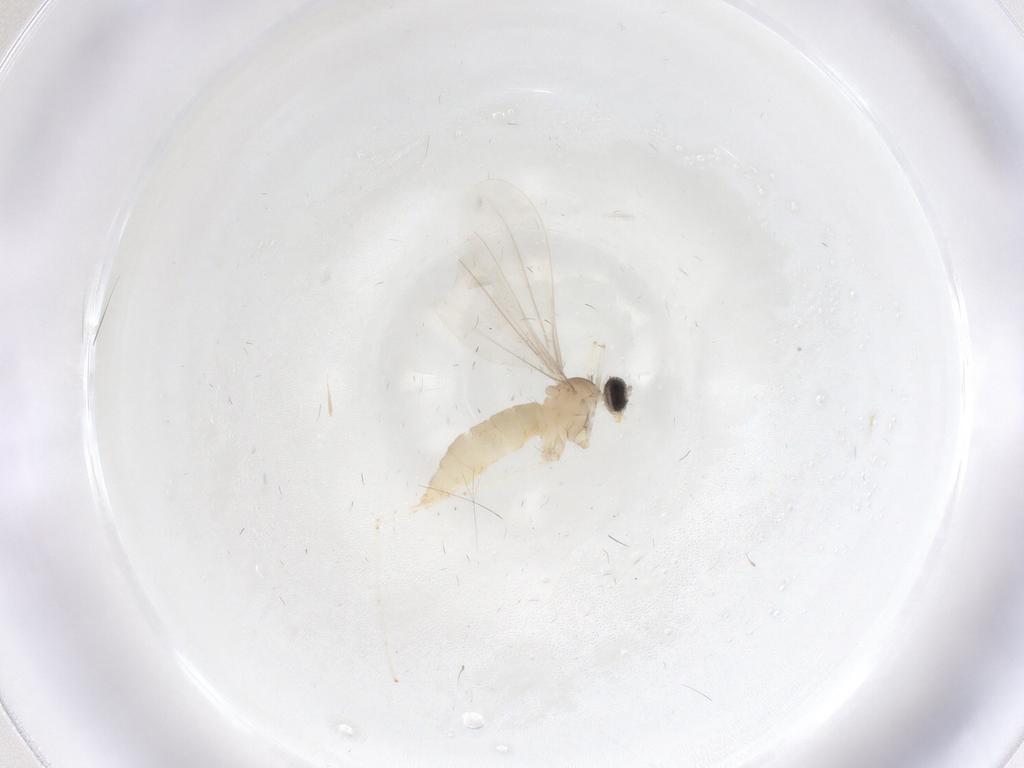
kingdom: Animalia
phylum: Arthropoda
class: Insecta
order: Diptera
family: Cecidomyiidae
